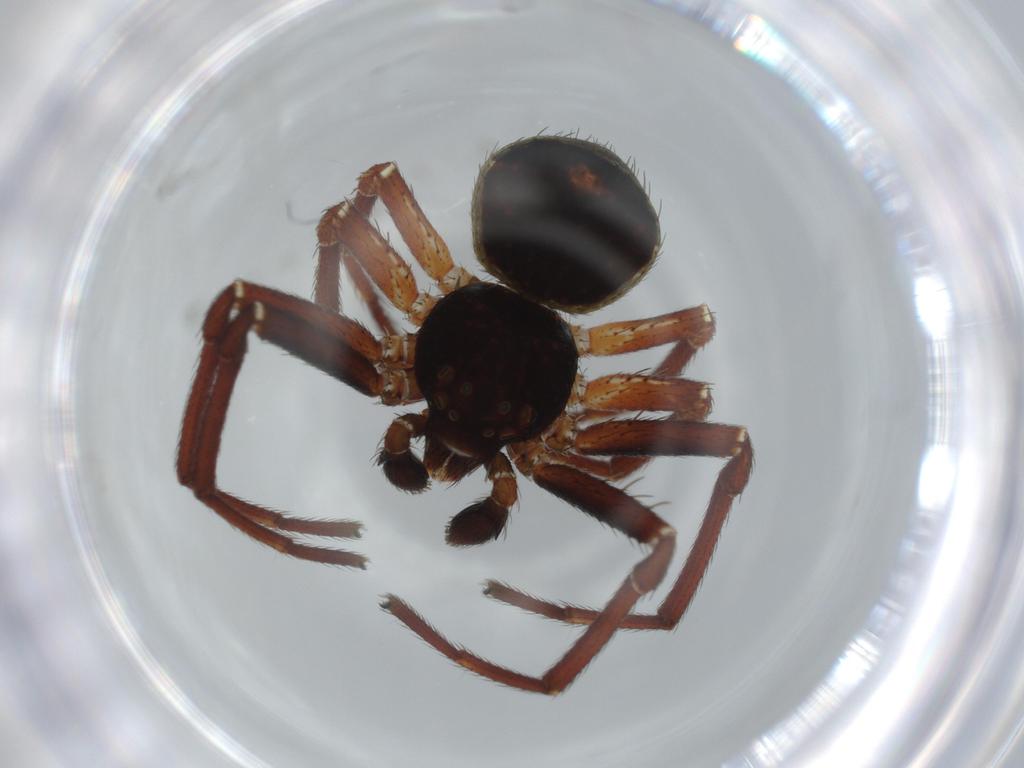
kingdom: Animalia
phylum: Arthropoda
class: Arachnida
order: Araneae
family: Thomisidae
